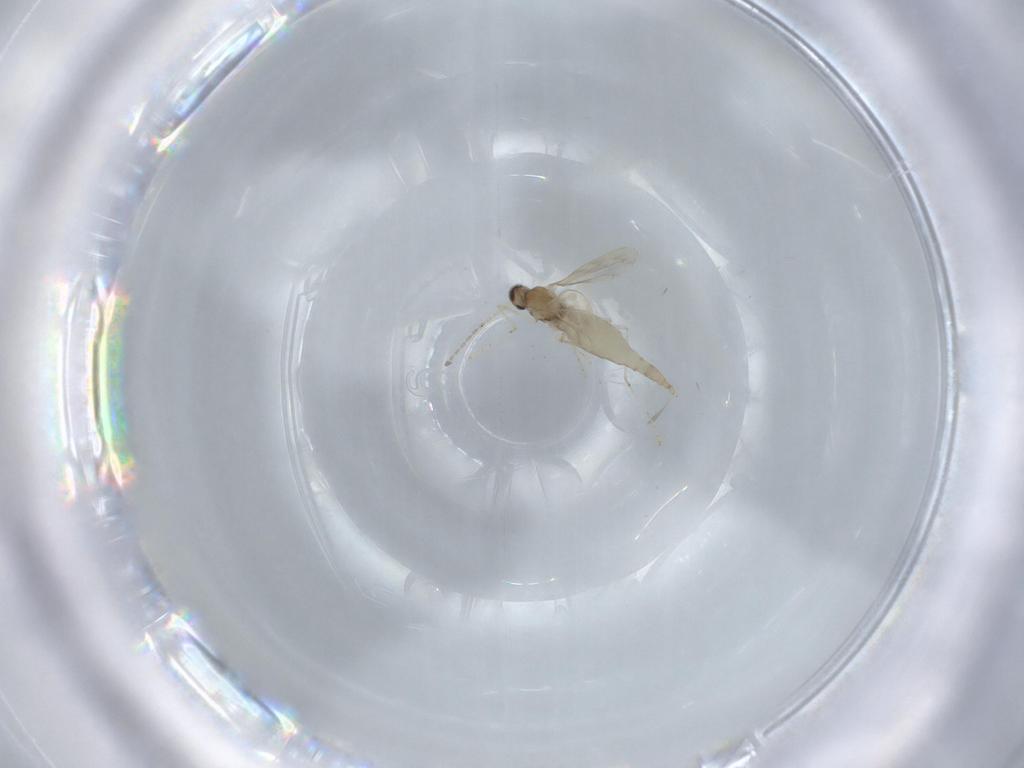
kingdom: Animalia
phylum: Arthropoda
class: Insecta
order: Diptera
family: Cecidomyiidae
